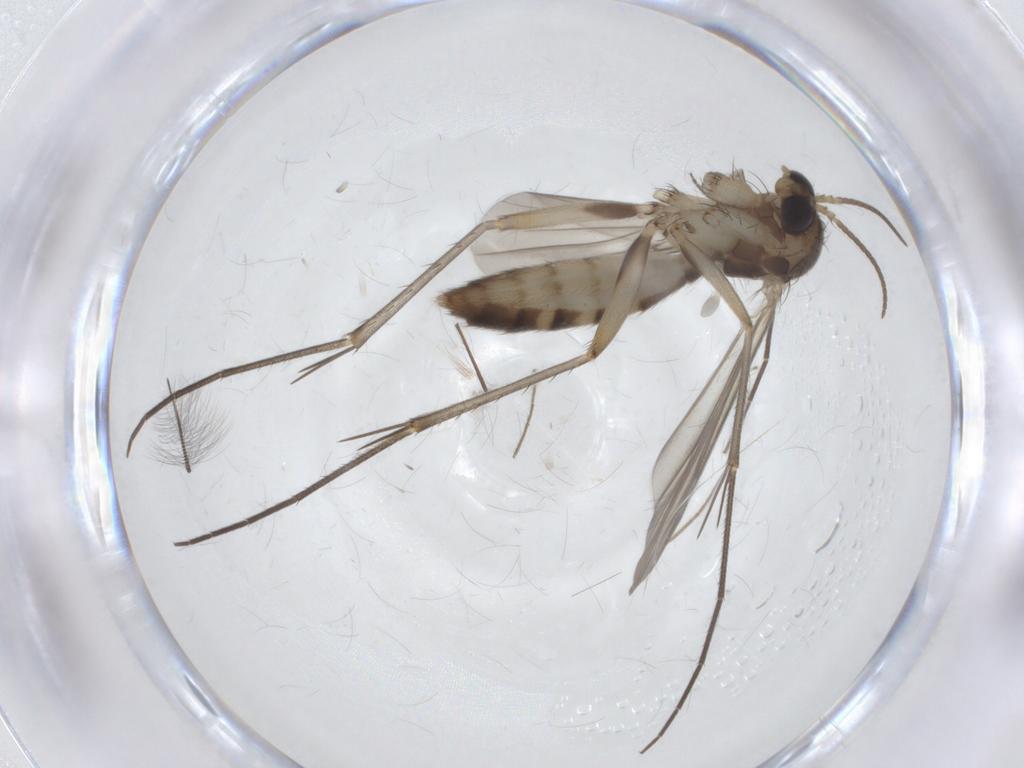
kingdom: Animalia
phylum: Arthropoda
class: Insecta
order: Diptera
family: Mycetophilidae
